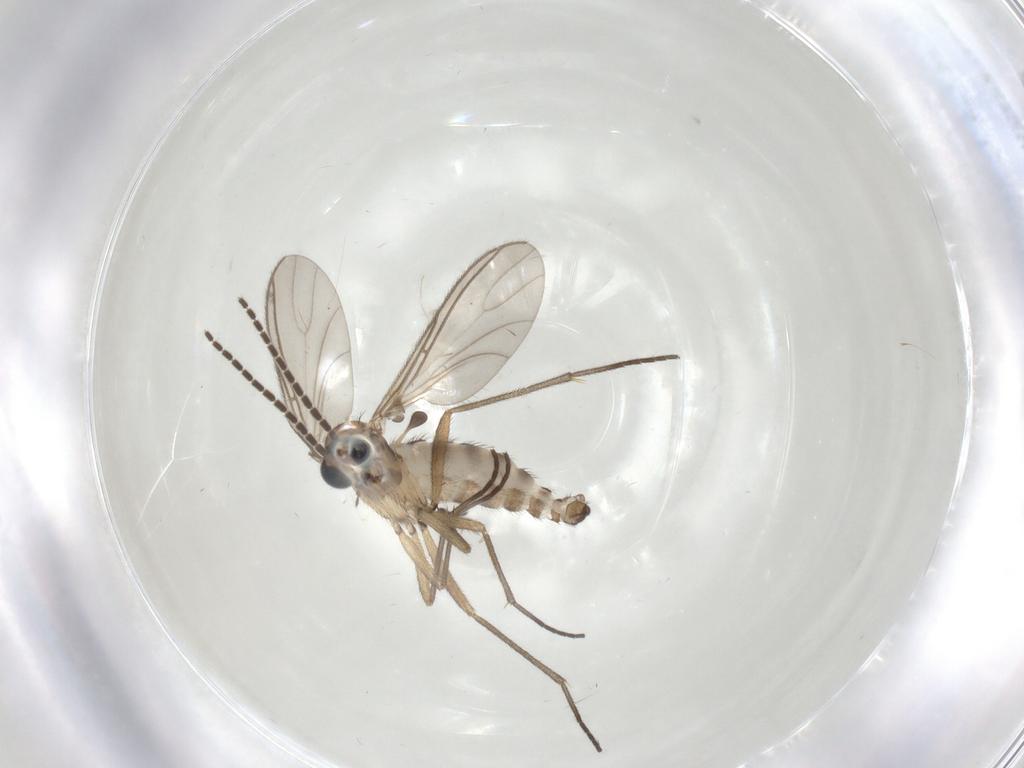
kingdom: Animalia
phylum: Arthropoda
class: Insecta
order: Diptera
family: Sciaridae
